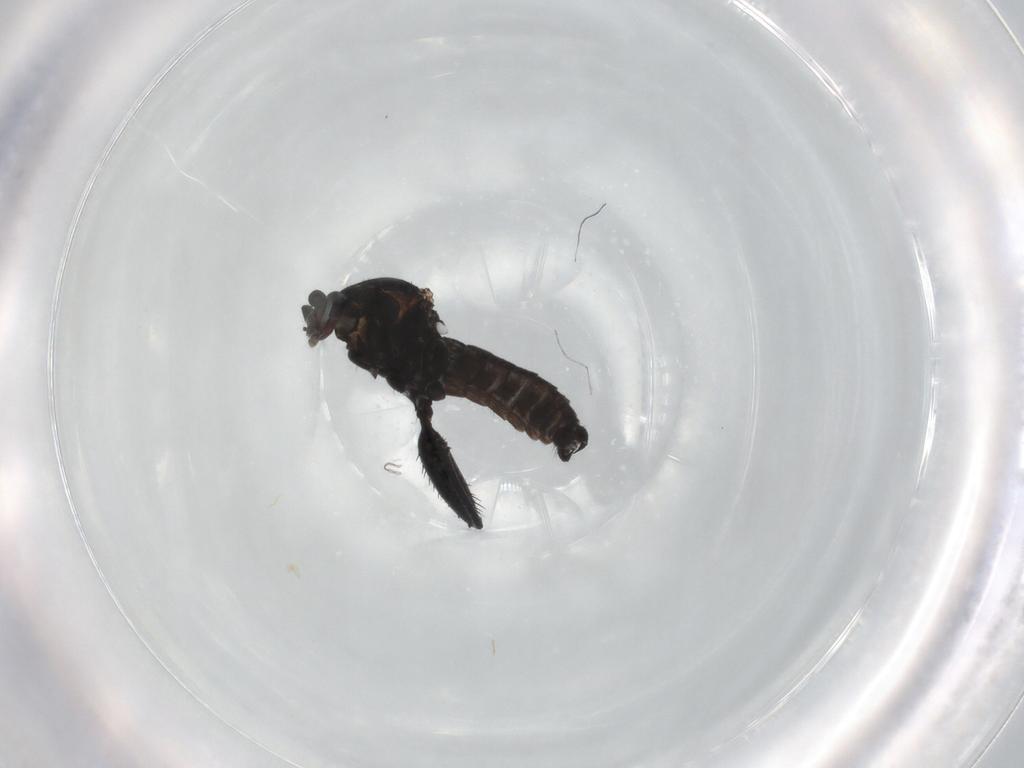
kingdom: Animalia
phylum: Arthropoda
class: Insecta
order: Diptera
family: Ceratopogonidae
